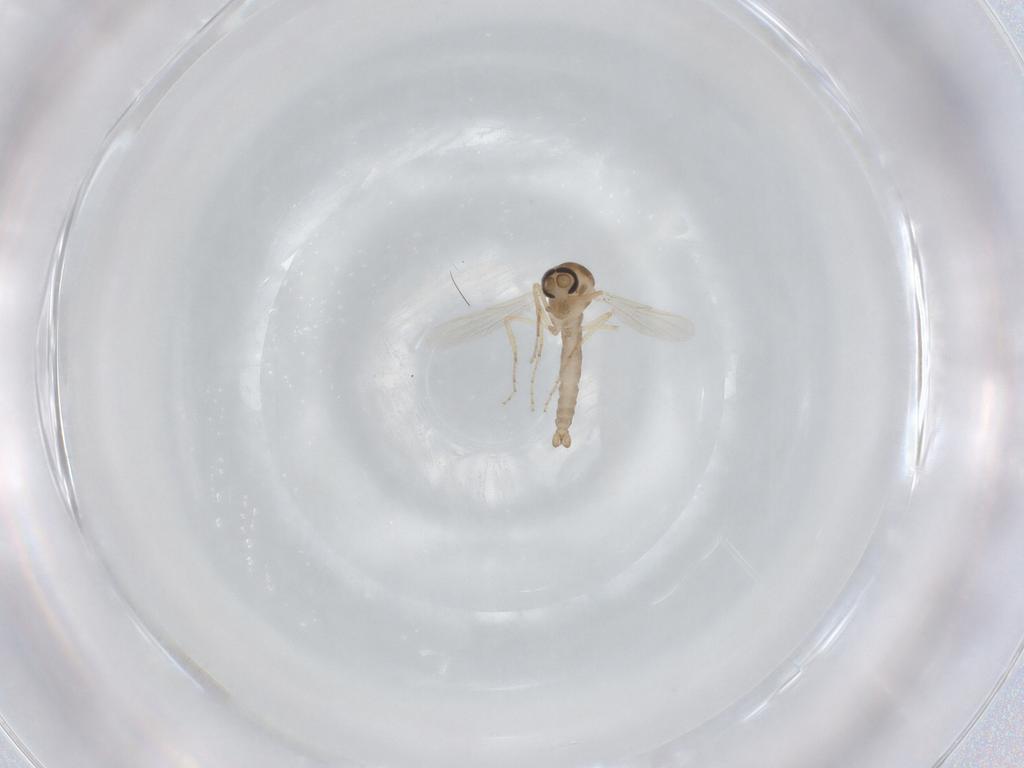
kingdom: Animalia
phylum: Arthropoda
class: Insecta
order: Diptera
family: Ceratopogonidae
